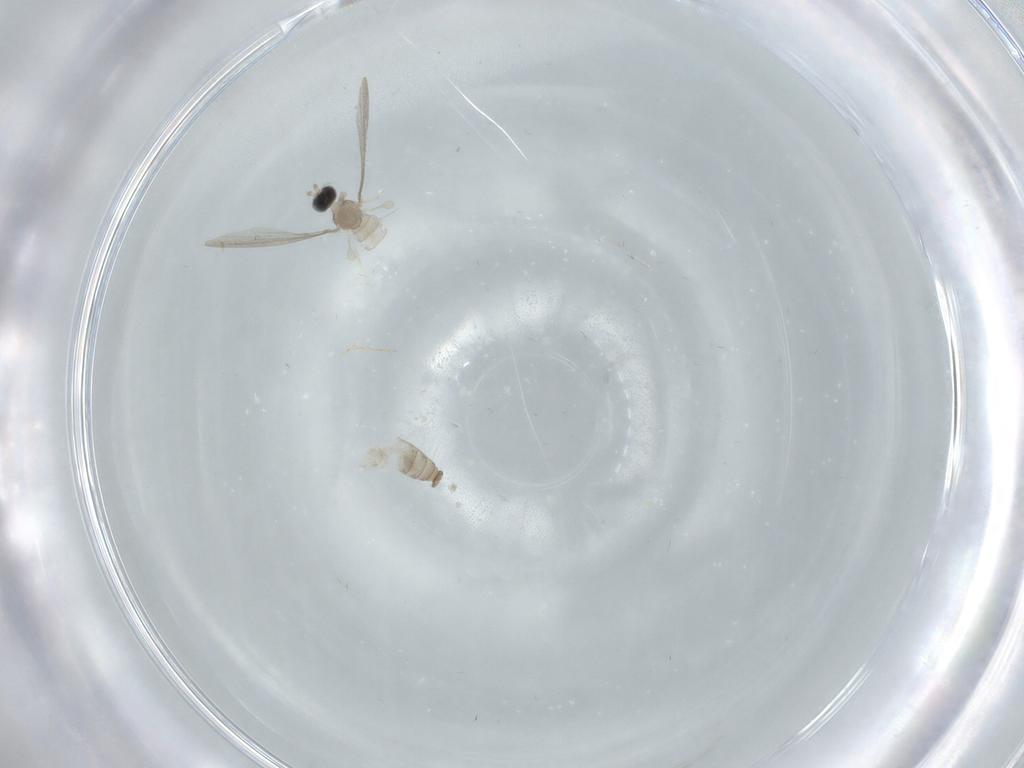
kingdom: Animalia
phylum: Arthropoda
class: Insecta
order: Diptera
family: Cecidomyiidae
